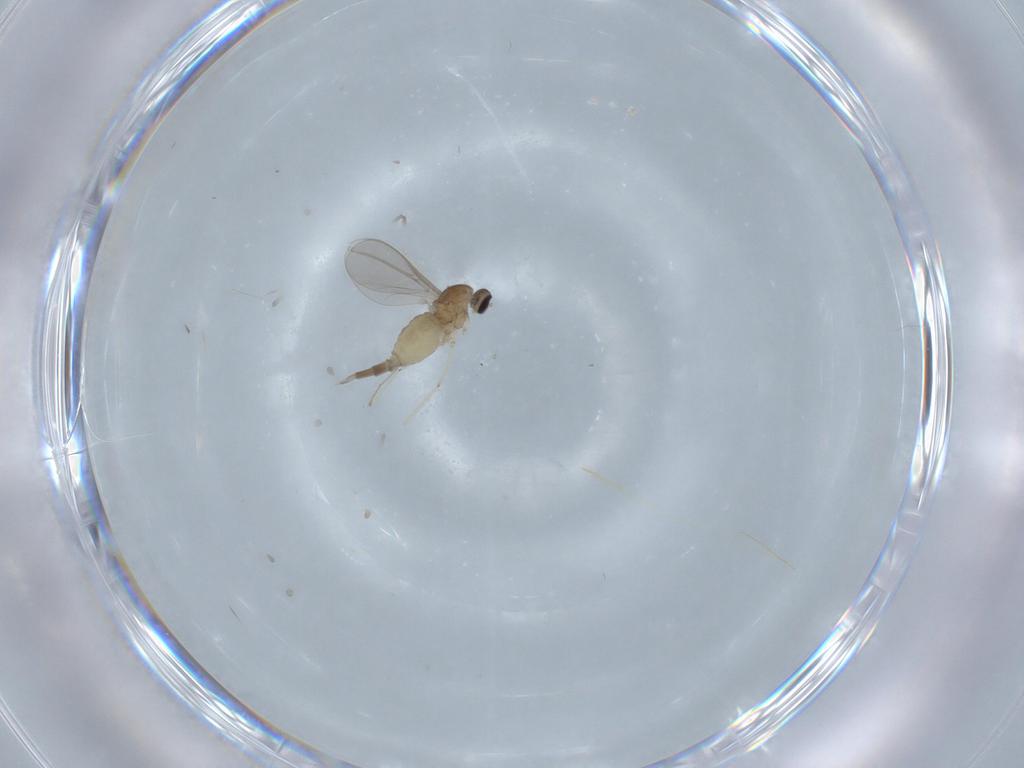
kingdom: Animalia
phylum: Arthropoda
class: Insecta
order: Diptera
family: Cecidomyiidae
